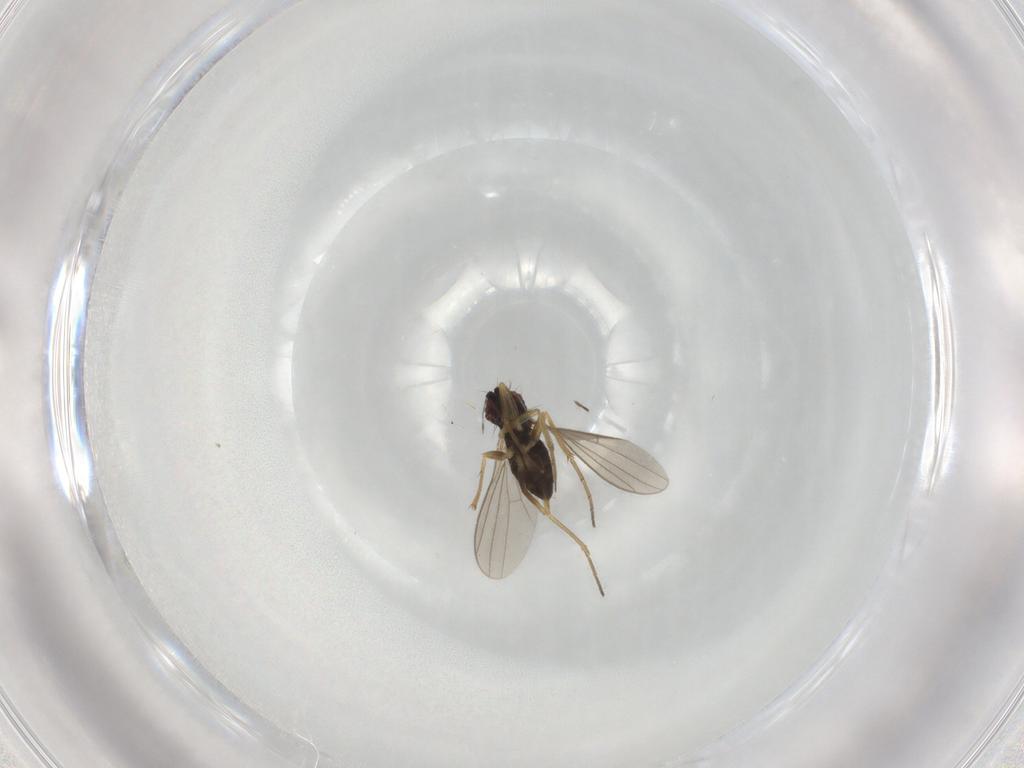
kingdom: Animalia
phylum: Arthropoda
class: Insecta
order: Diptera
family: Dolichopodidae
